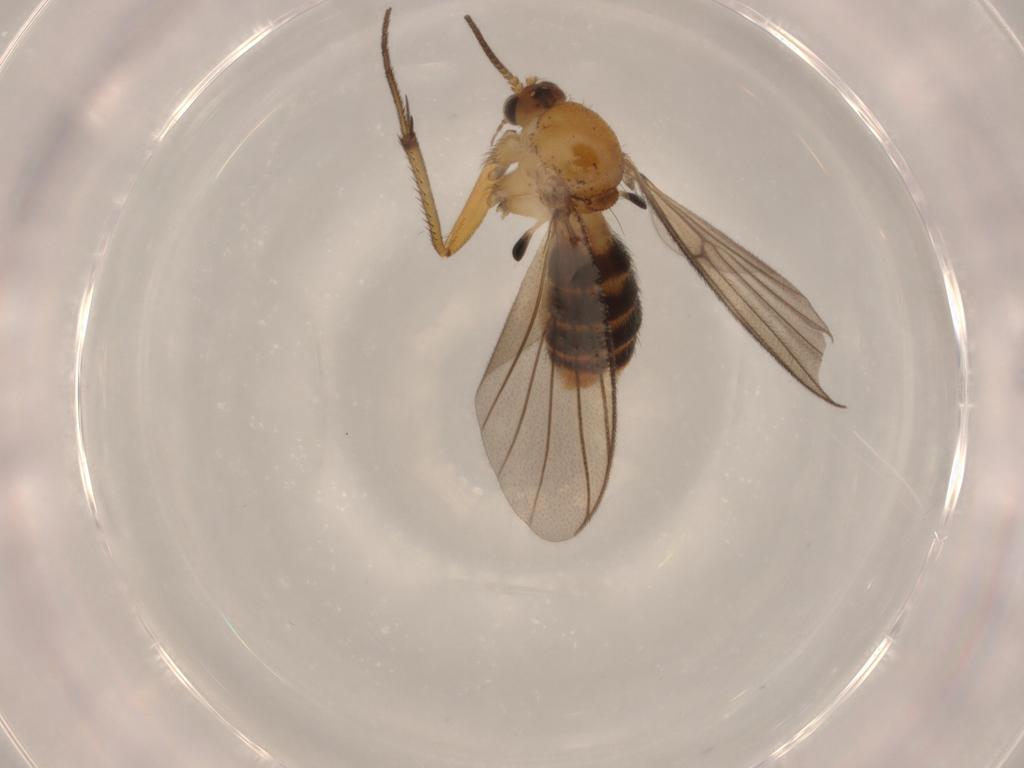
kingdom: Animalia
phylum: Arthropoda
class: Insecta
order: Diptera
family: Mycetophilidae
